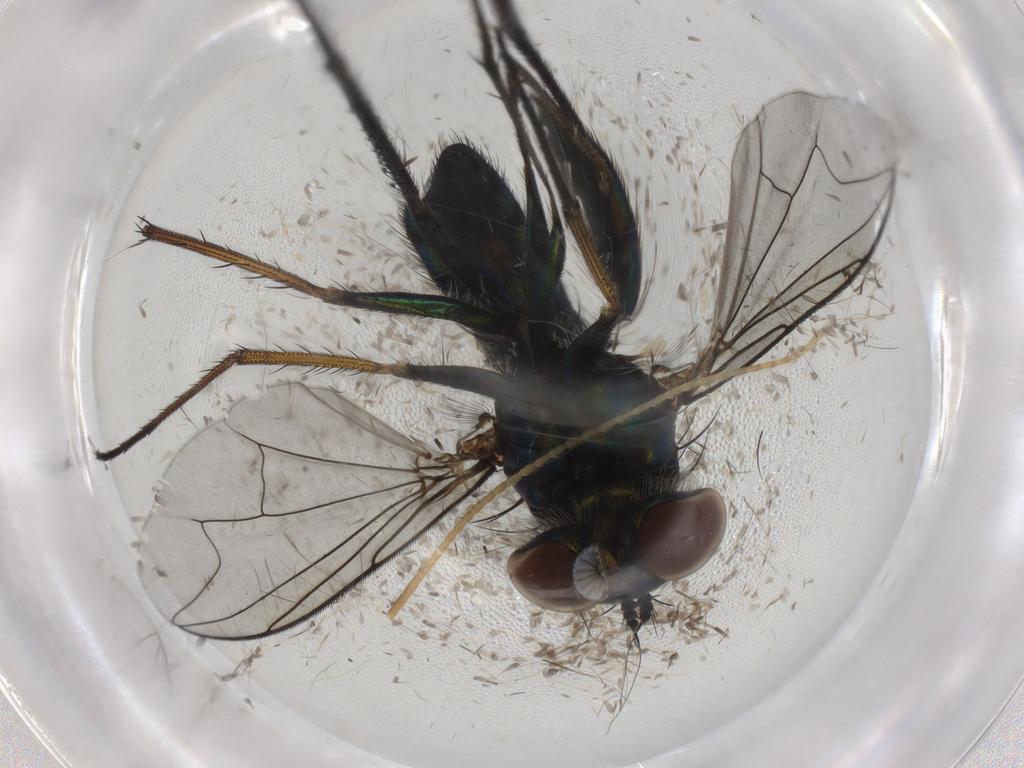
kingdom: Animalia
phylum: Arthropoda
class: Insecta
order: Diptera
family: Dolichopodidae
